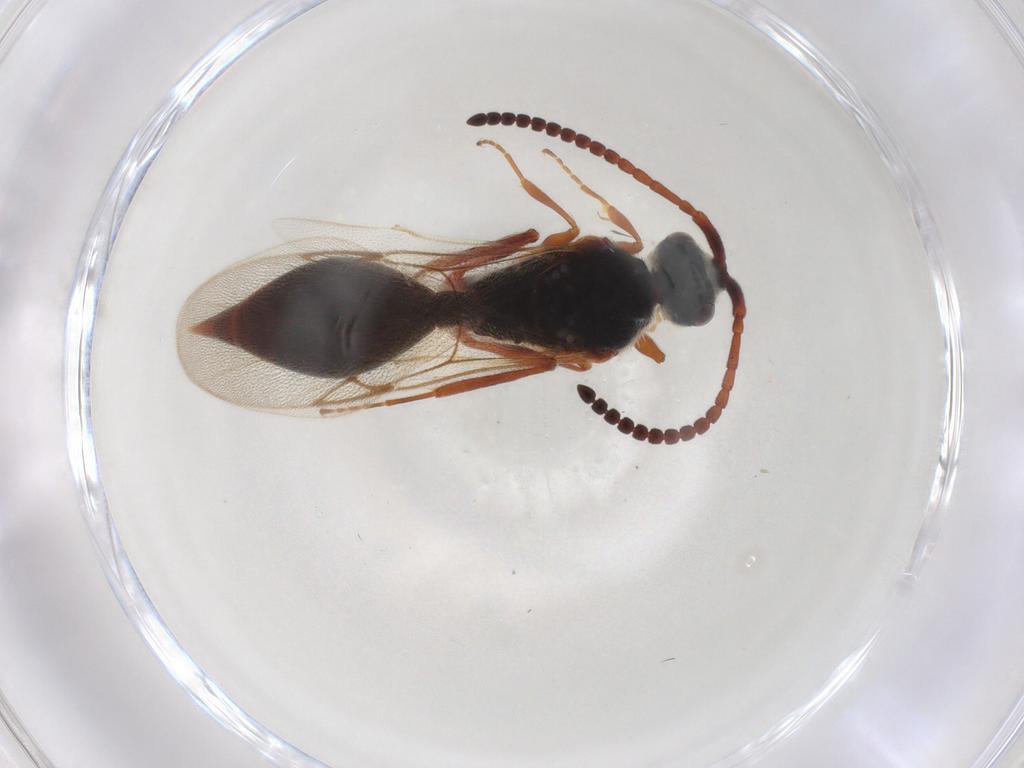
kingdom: Animalia
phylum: Arthropoda
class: Insecta
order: Hymenoptera
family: Diapriidae
